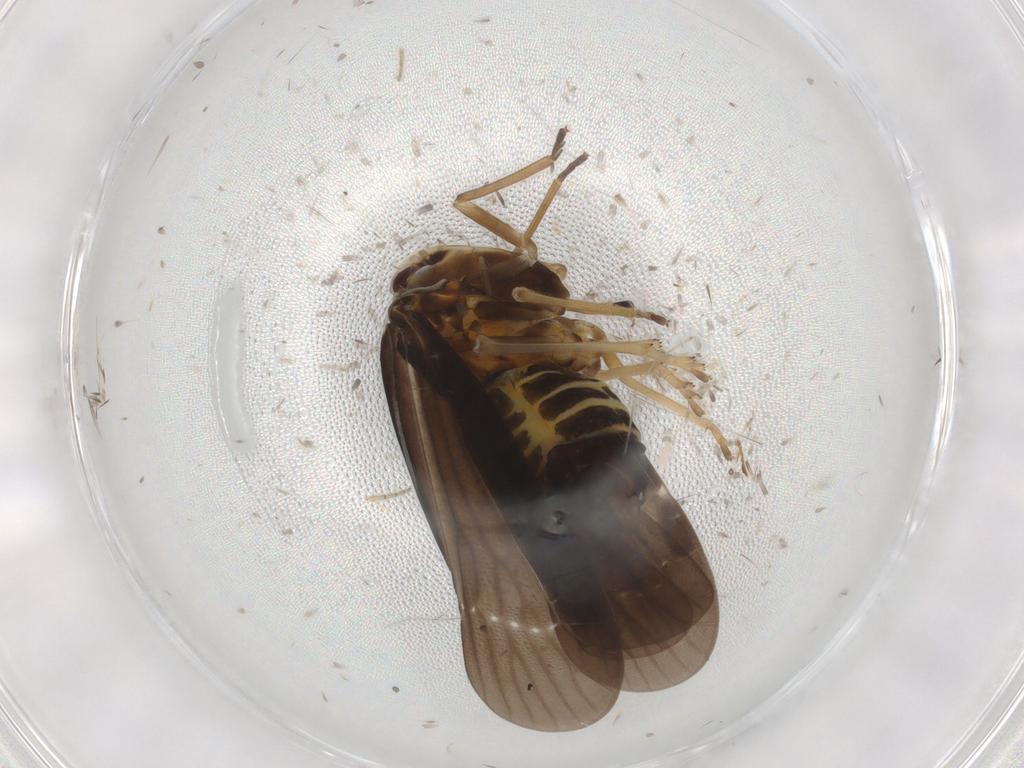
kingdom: Animalia
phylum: Arthropoda
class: Insecta
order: Hemiptera
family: Derbidae
